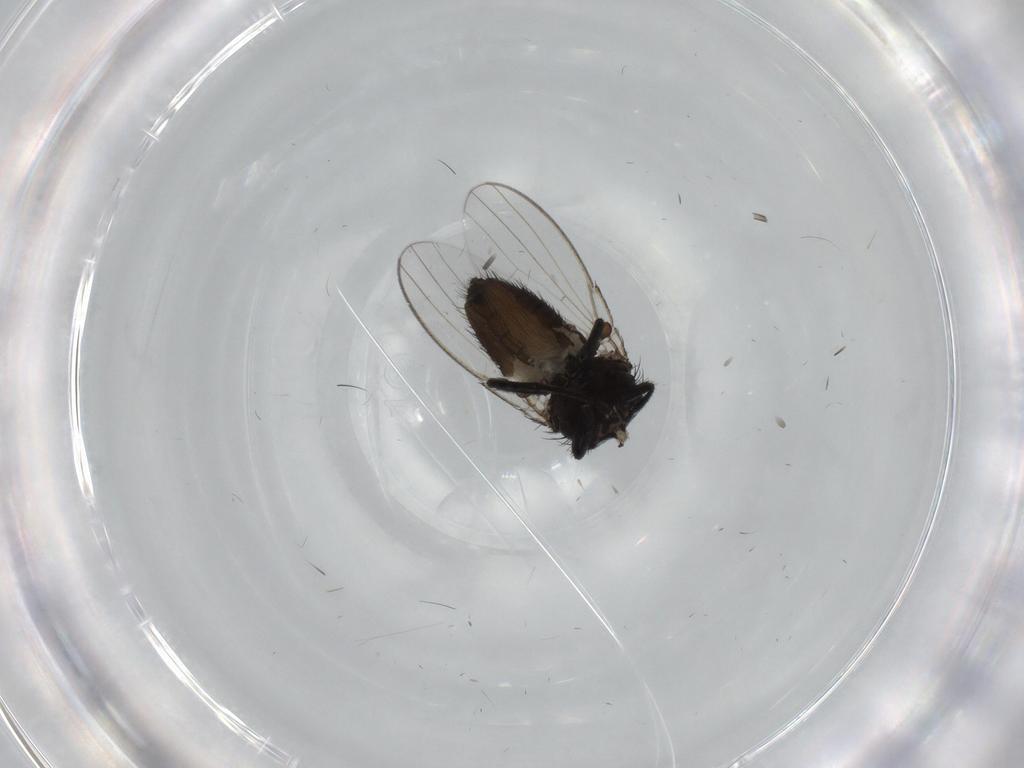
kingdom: Animalia
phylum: Arthropoda
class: Insecta
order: Diptera
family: Milichiidae
